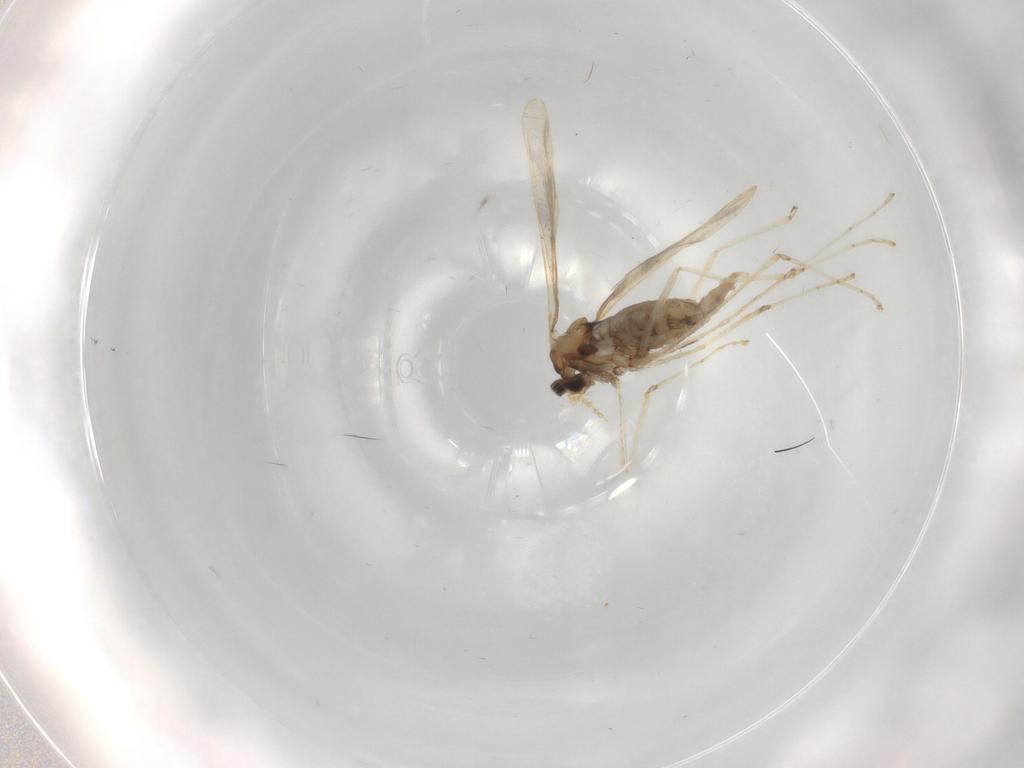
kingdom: Animalia
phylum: Arthropoda
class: Insecta
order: Diptera
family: Cecidomyiidae
